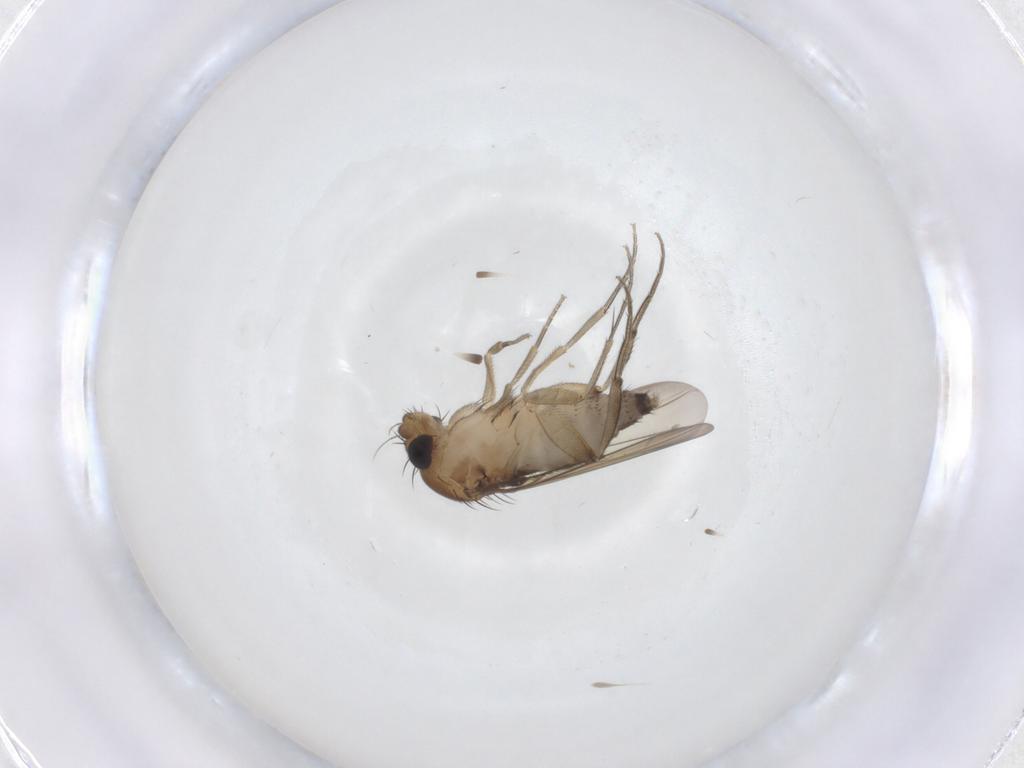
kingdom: Animalia
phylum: Arthropoda
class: Insecta
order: Diptera
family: Phoridae
